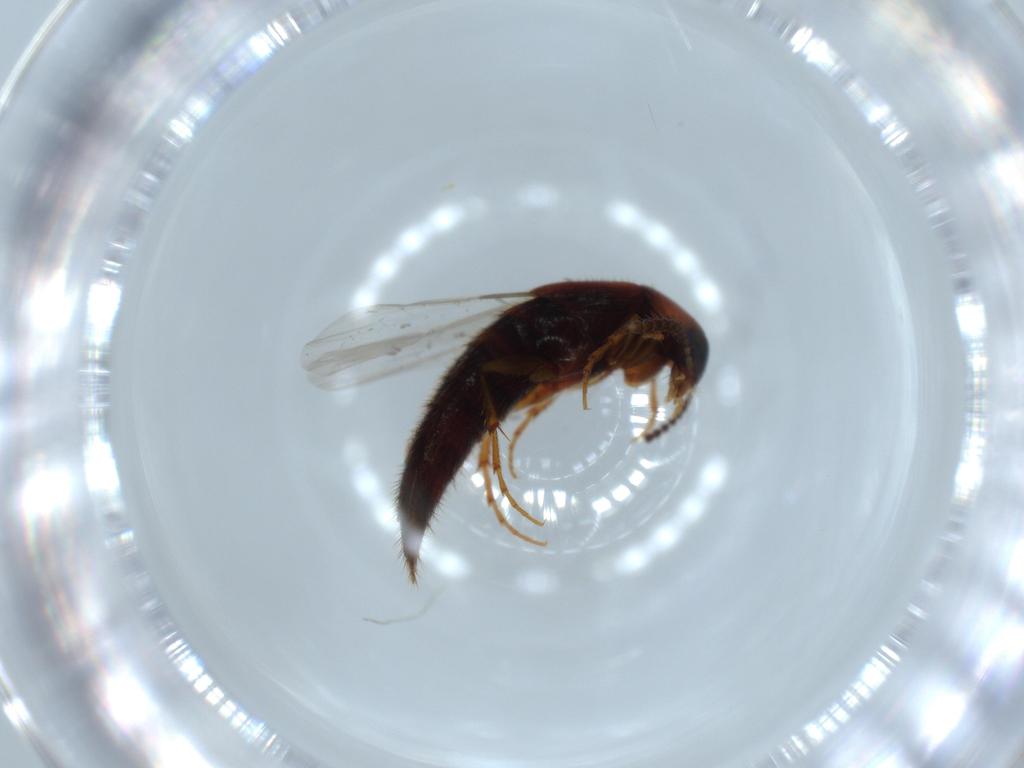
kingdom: Animalia
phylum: Arthropoda
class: Insecta
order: Coleoptera
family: Staphylinidae
